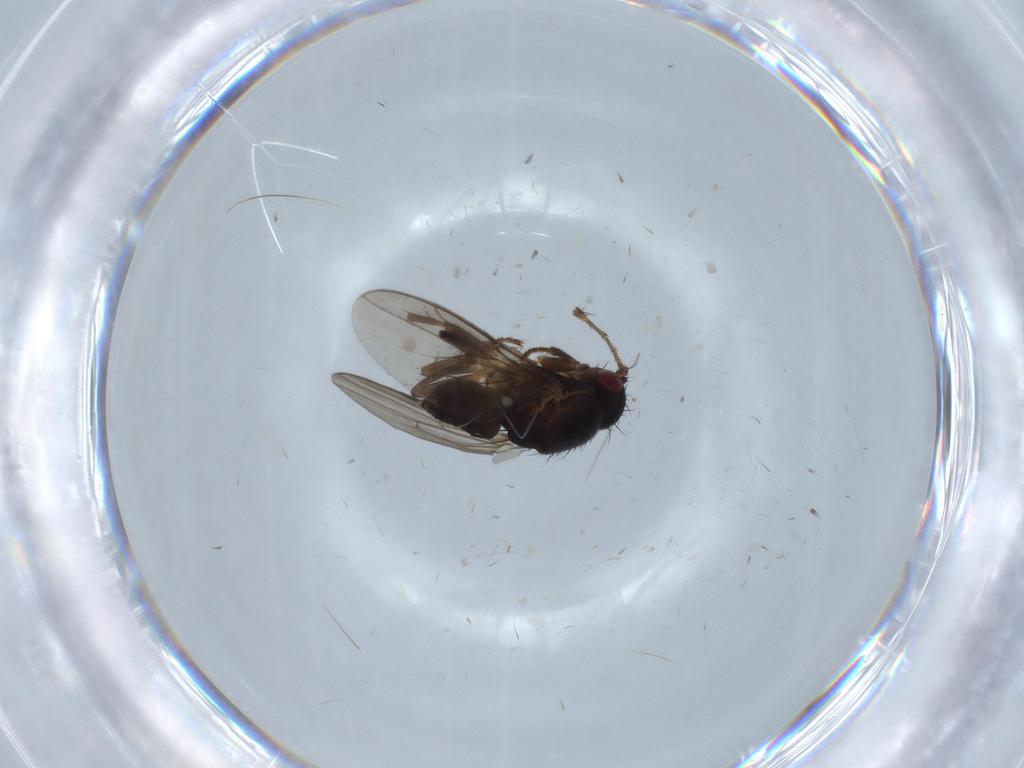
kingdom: Animalia
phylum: Arthropoda
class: Insecta
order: Diptera
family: Sphaeroceridae
